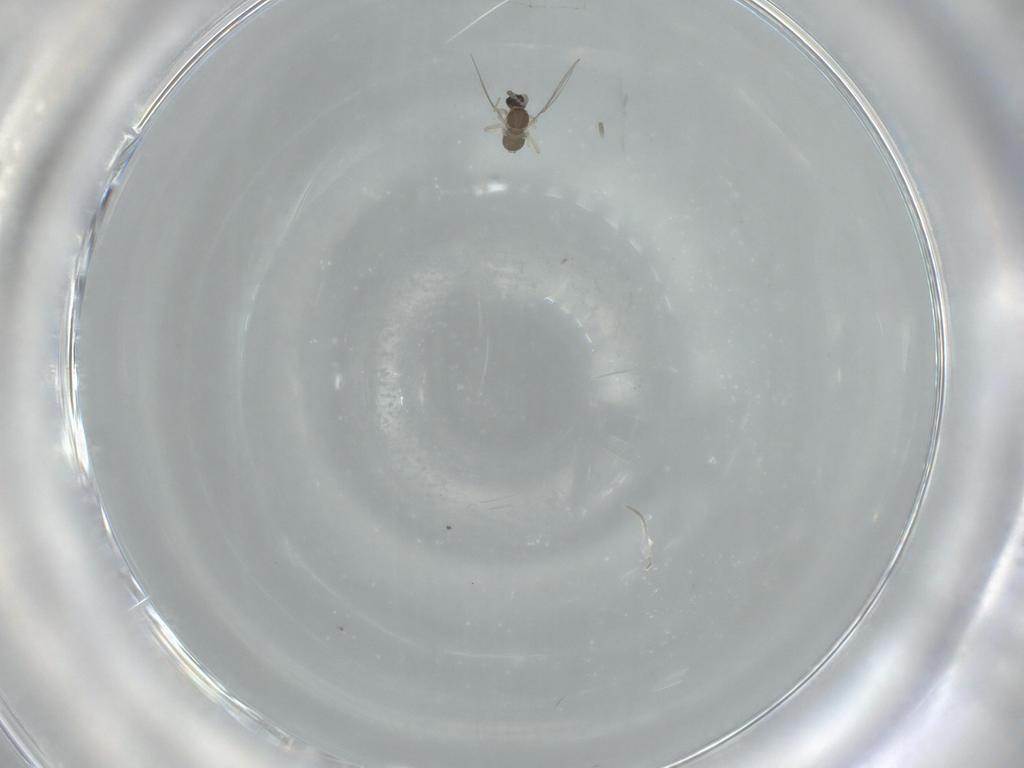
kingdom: Animalia
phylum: Arthropoda
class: Insecta
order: Diptera
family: Cecidomyiidae
